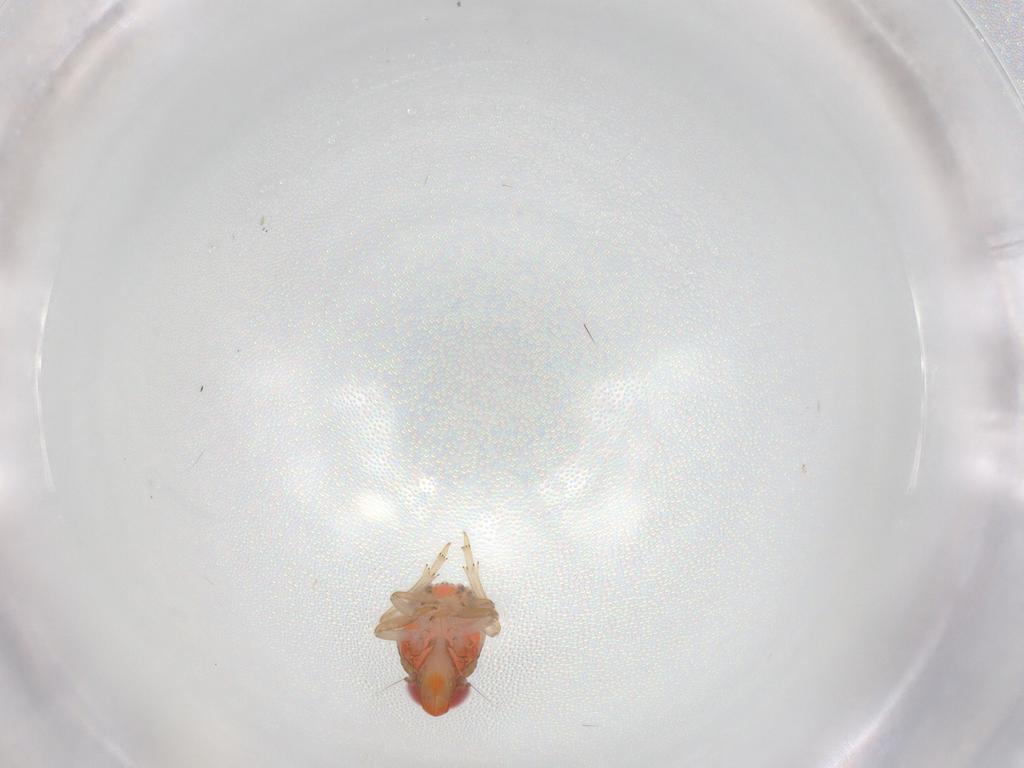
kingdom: Animalia
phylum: Arthropoda
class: Insecta
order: Hemiptera
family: Cixiidae
